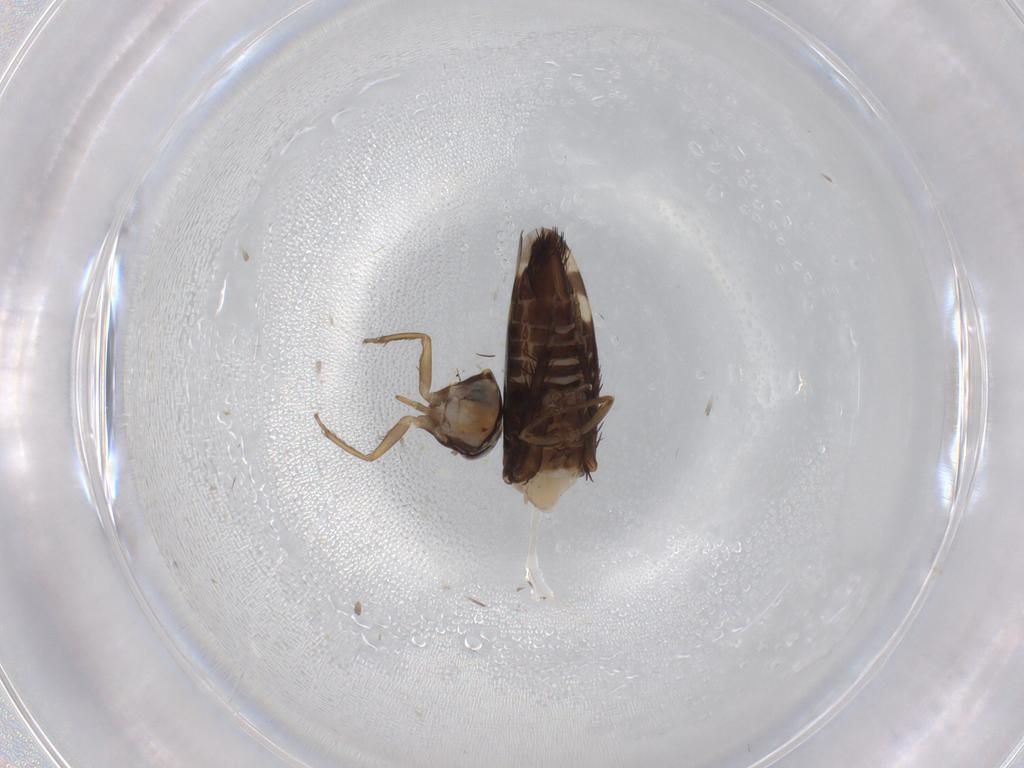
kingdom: Animalia
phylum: Arthropoda
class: Insecta
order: Hemiptera
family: Cicadellidae
